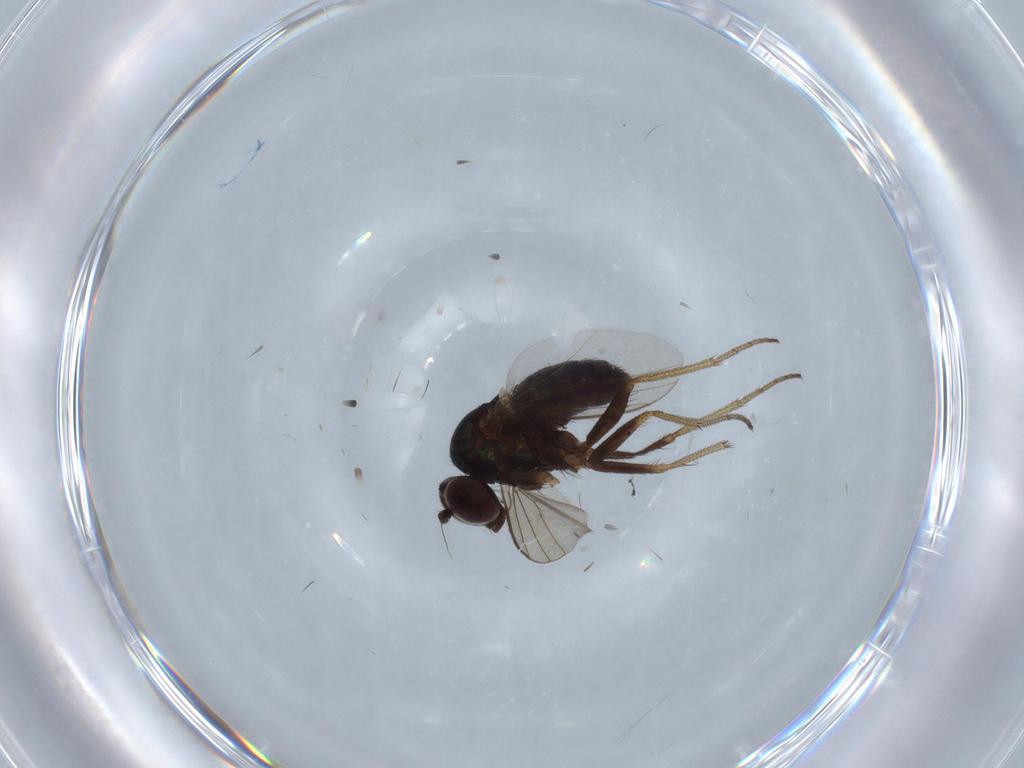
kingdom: Animalia
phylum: Arthropoda
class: Insecta
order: Diptera
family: Dolichopodidae
